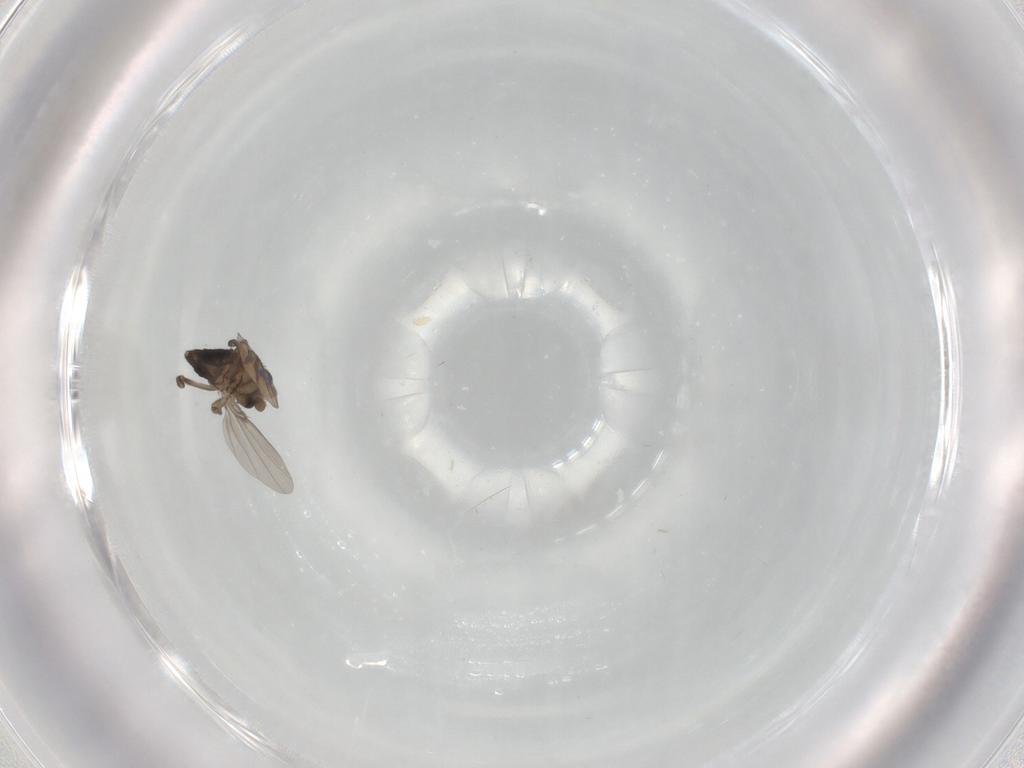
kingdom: Animalia
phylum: Arthropoda
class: Insecta
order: Diptera
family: Phoridae
